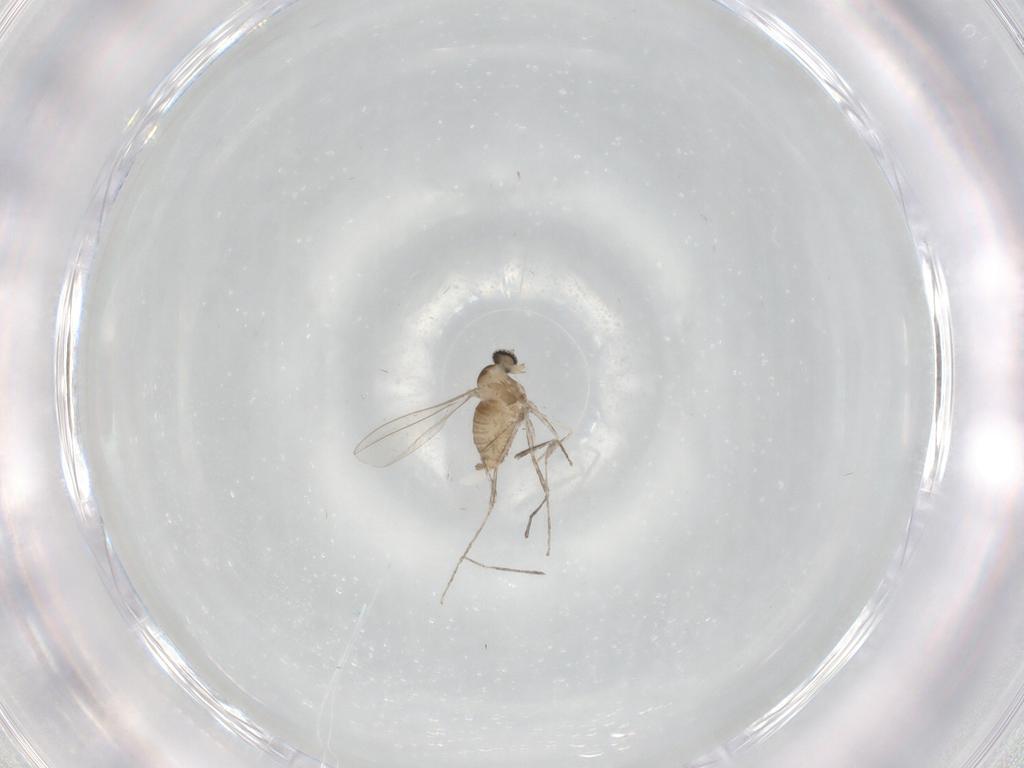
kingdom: Animalia
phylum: Arthropoda
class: Insecta
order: Diptera
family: Cecidomyiidae
